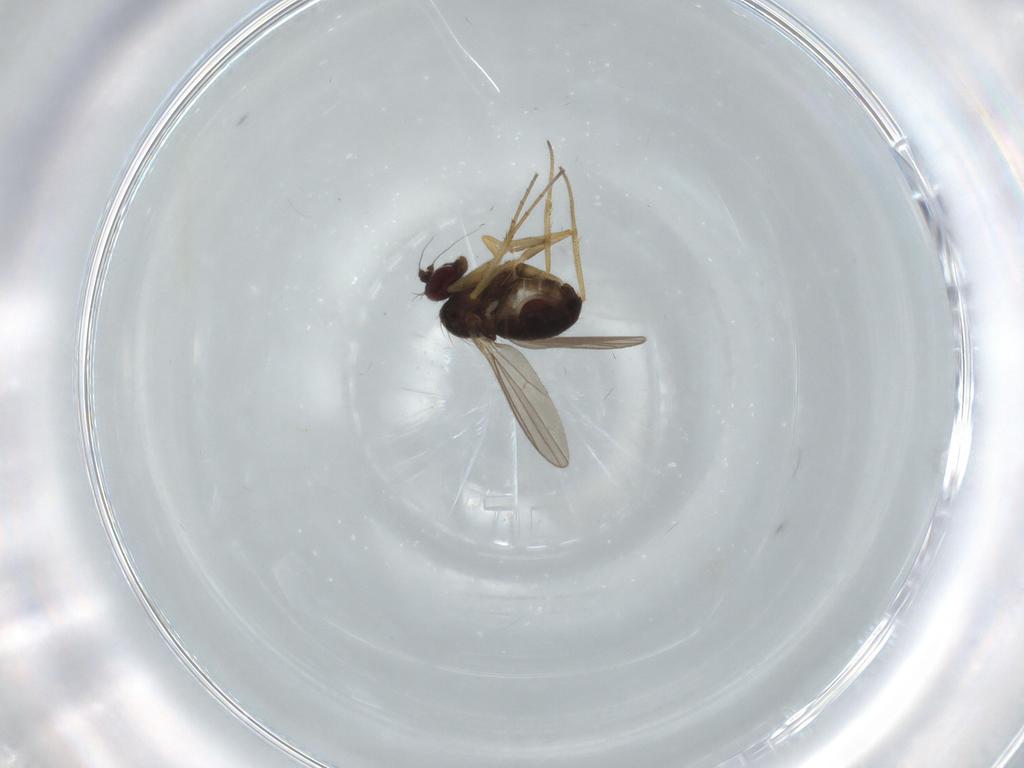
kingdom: Animalia
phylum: Arthropoda
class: Insecta
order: Diptera
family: Dolichopodidae
